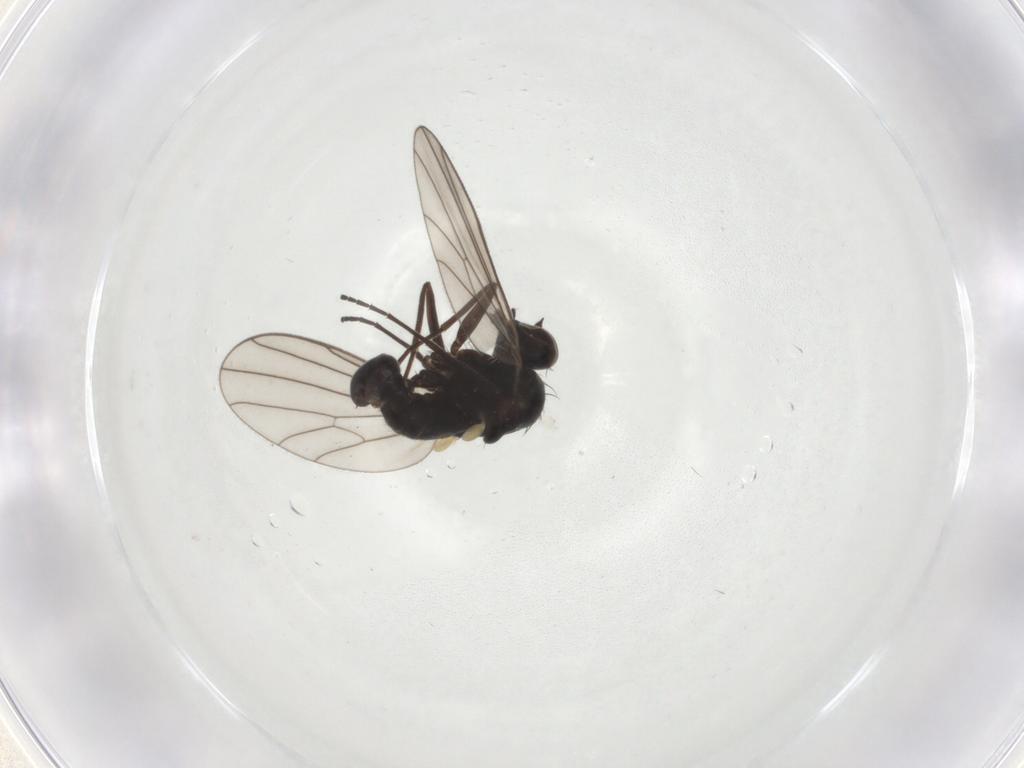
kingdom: Animalia
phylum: Arthropoda
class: Insecta
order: Diptera
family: Dolichopodidae
